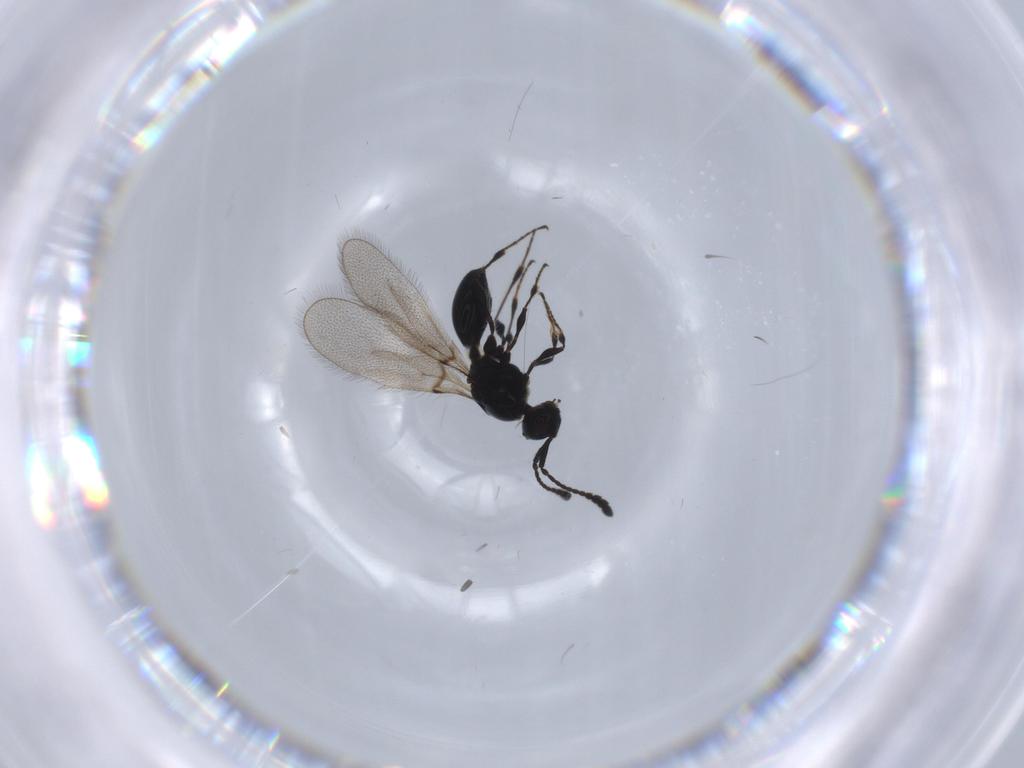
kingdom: Animalia
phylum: Arthropoda
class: Insecta
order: Hymenoptera
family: Diapriidae
